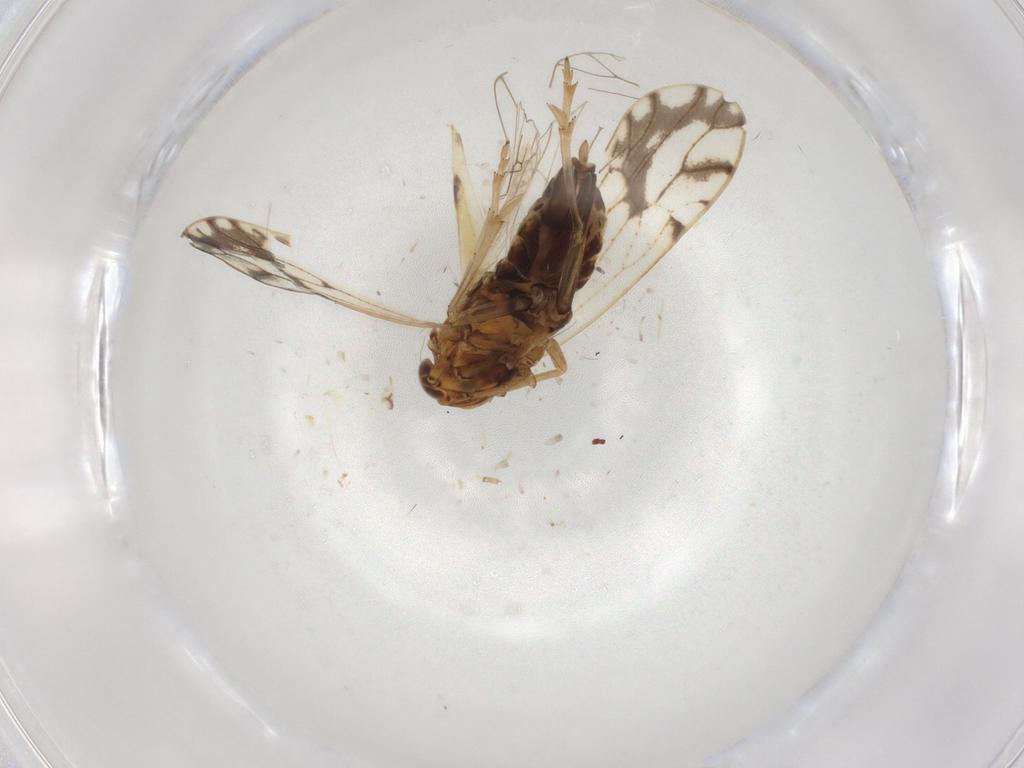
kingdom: Animalia
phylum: Arthropoda
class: Insecta
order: Hemiptera
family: Delphacidae
